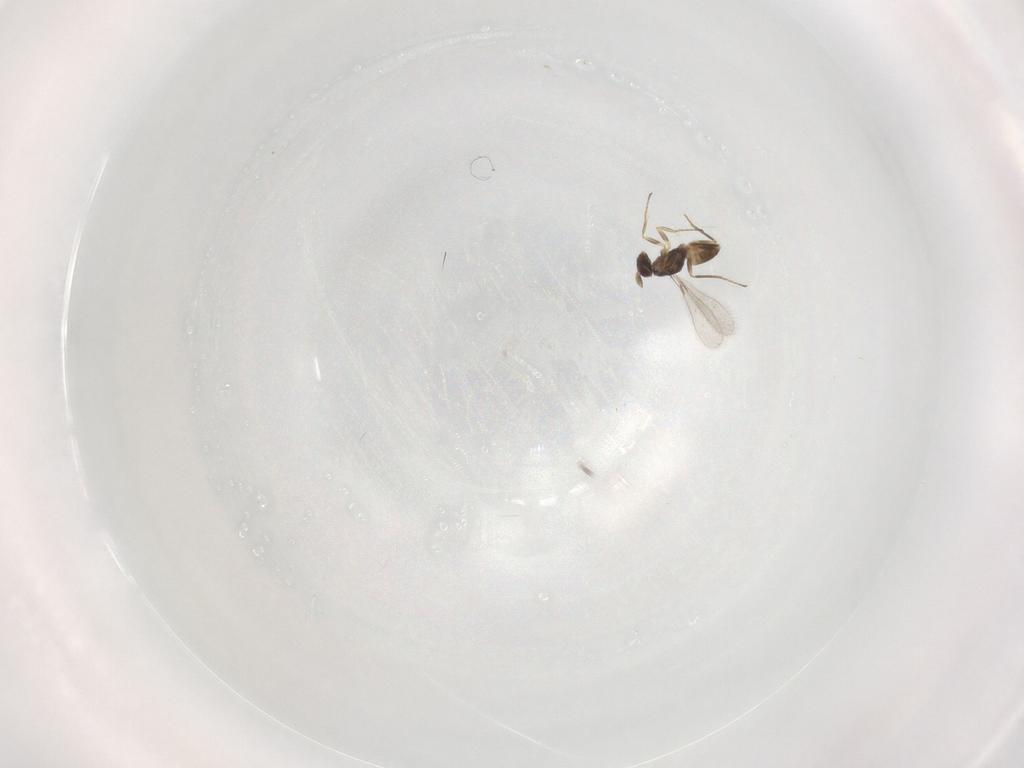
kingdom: Animalia
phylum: Arthropoda
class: Insecta
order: Hymenoptera
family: Mymaridae
